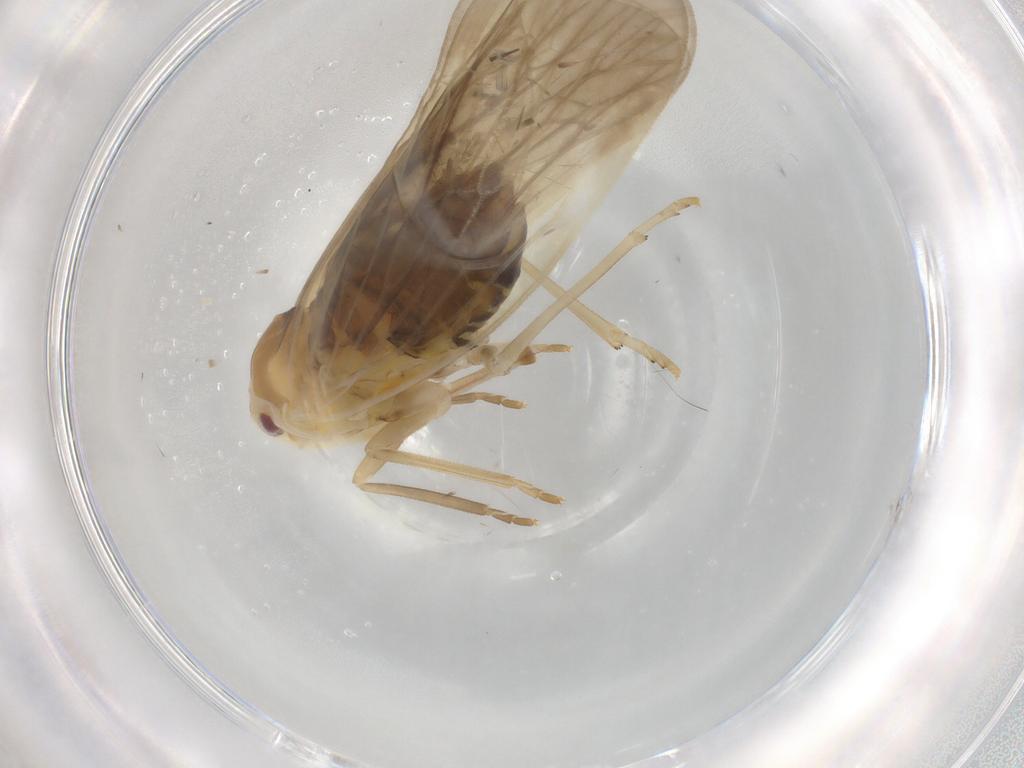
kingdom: Animalia
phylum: Arthropoda
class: Insecta
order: Hemiptera
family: Derbidae
